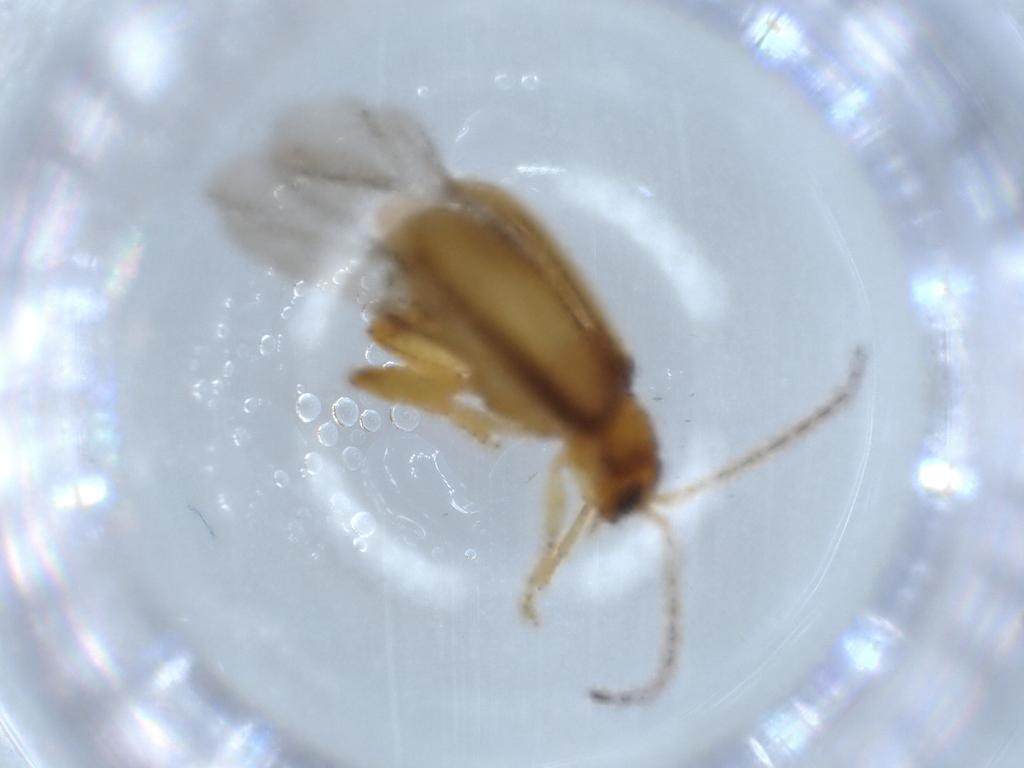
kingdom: Animalia
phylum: Arthropoda
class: Insecta
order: Coleoptera
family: Chrysomelidae
